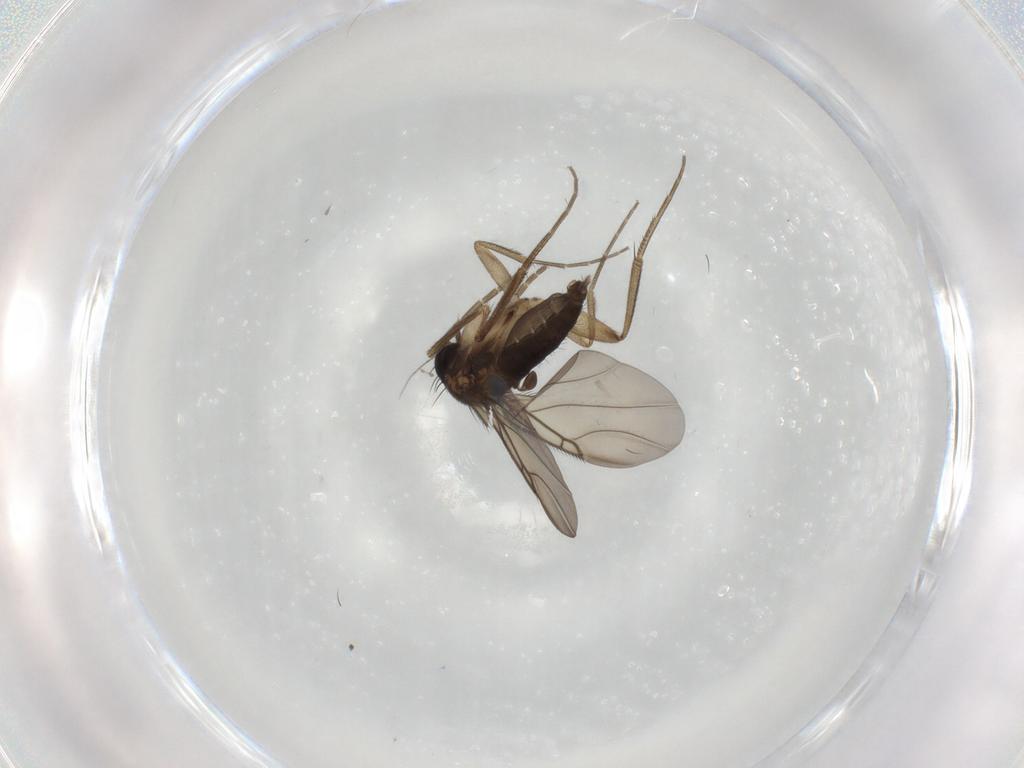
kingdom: Animalia
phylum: Arthropoda
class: Insecta
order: Diptera
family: Phoridae
